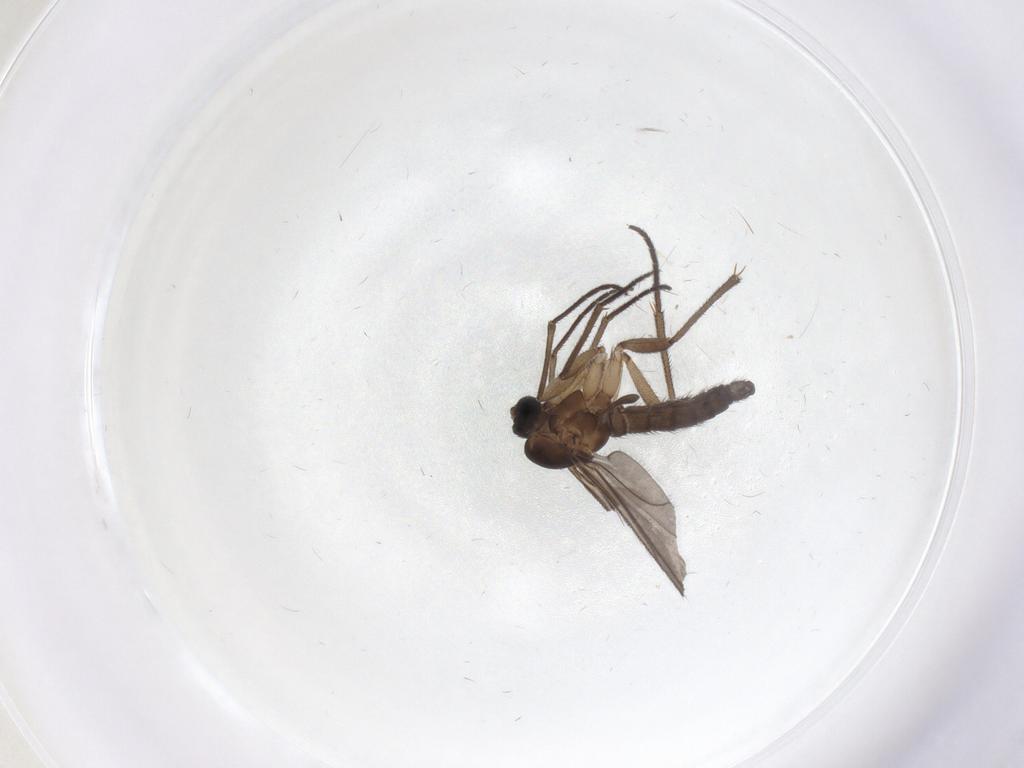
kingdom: Animalia
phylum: Arthropoda
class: Insecta
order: Diptera
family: Sciaridae
